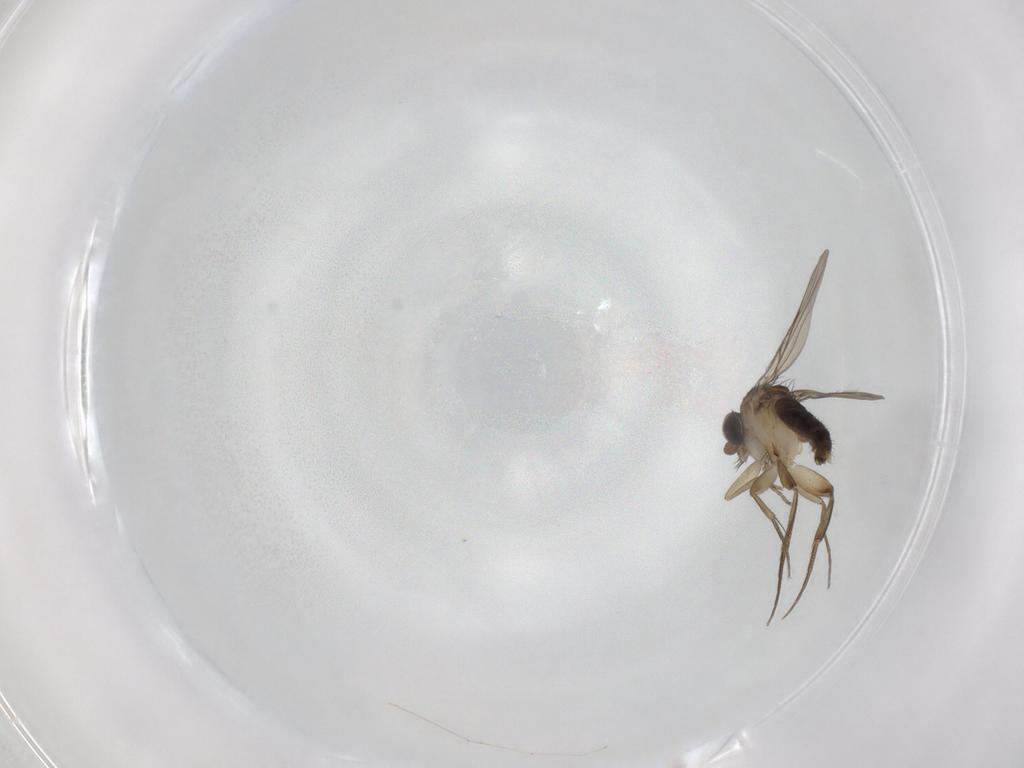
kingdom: Animalia
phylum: Arthropoda
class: Insecta
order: Diptera
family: Phoridae
